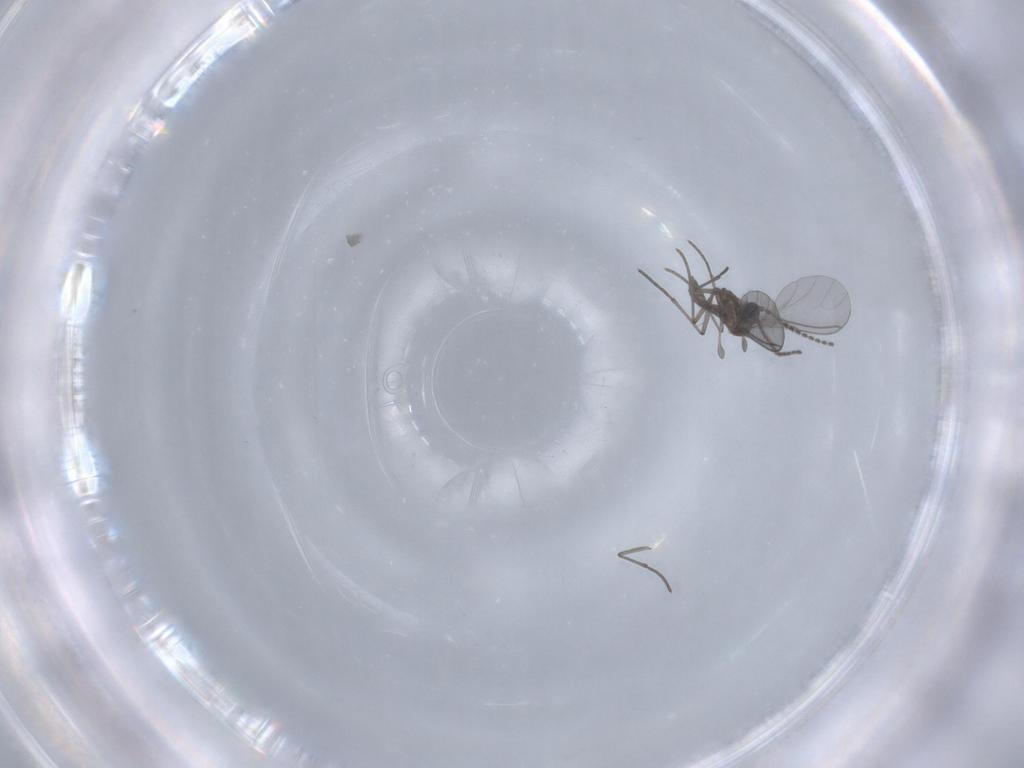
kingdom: Animalia
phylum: Arthropoda
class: Insecta
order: Diptera
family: Sciaridae
